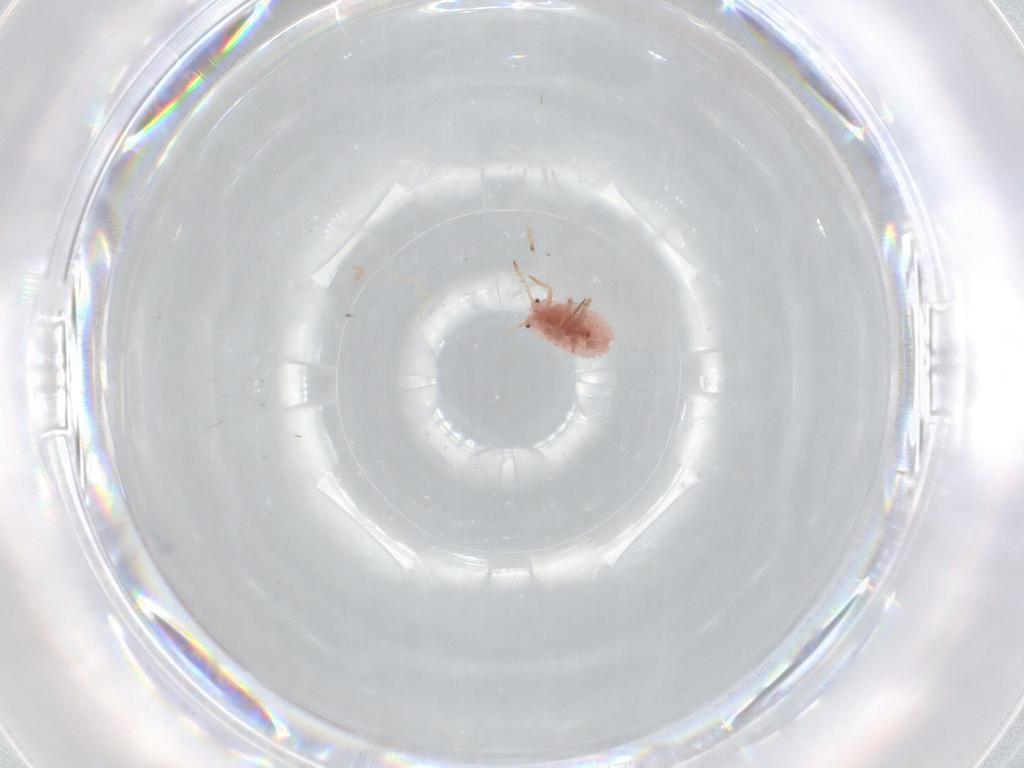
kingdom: Animalia
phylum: Arthropoda
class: Insecta
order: Hemiptera
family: Coccoidea_incertae_sedis
